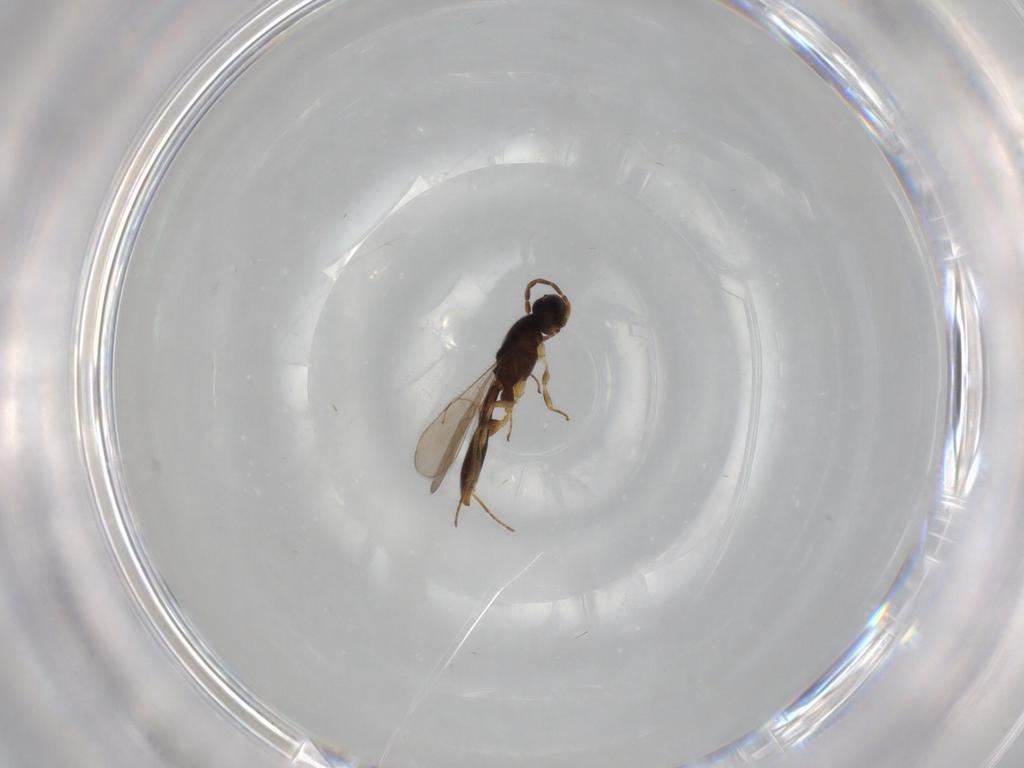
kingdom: Animalia
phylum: Arthropoda
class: Insecta
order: Hymenoptera
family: Scelionidae
